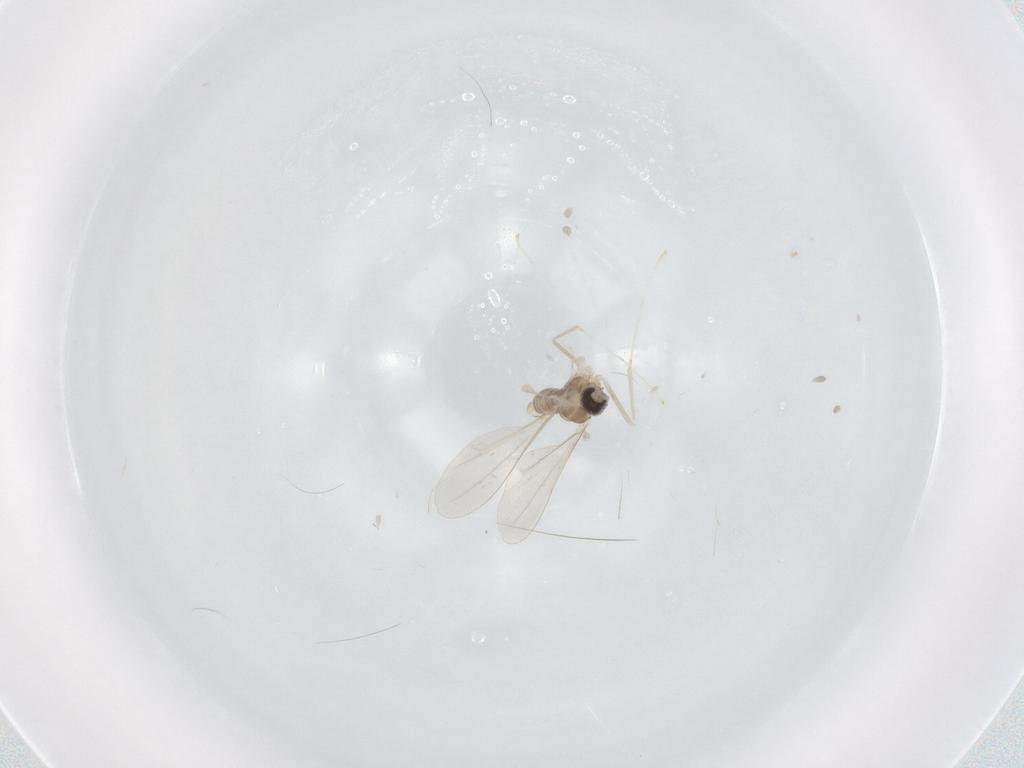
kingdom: Animalia
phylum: Arthropoda
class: Insecta
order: Diptera
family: Cecidomyiidae
